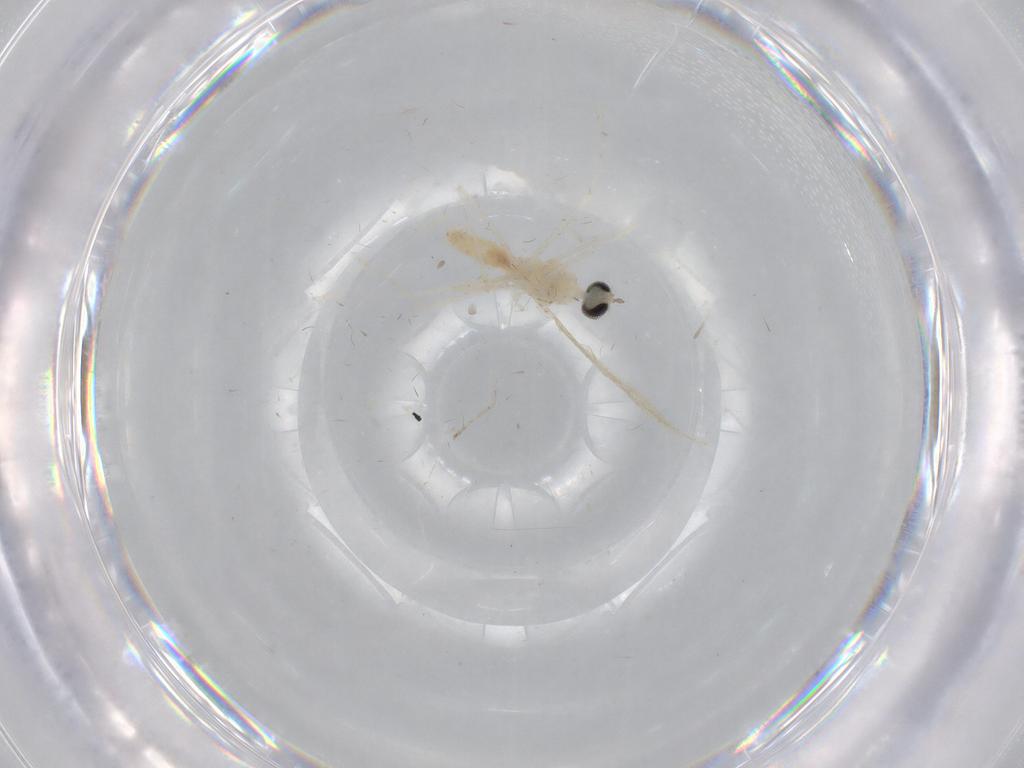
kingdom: Animalia
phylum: Arthropoda
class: Insecta
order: Diptera
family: Cecidomyiidae
